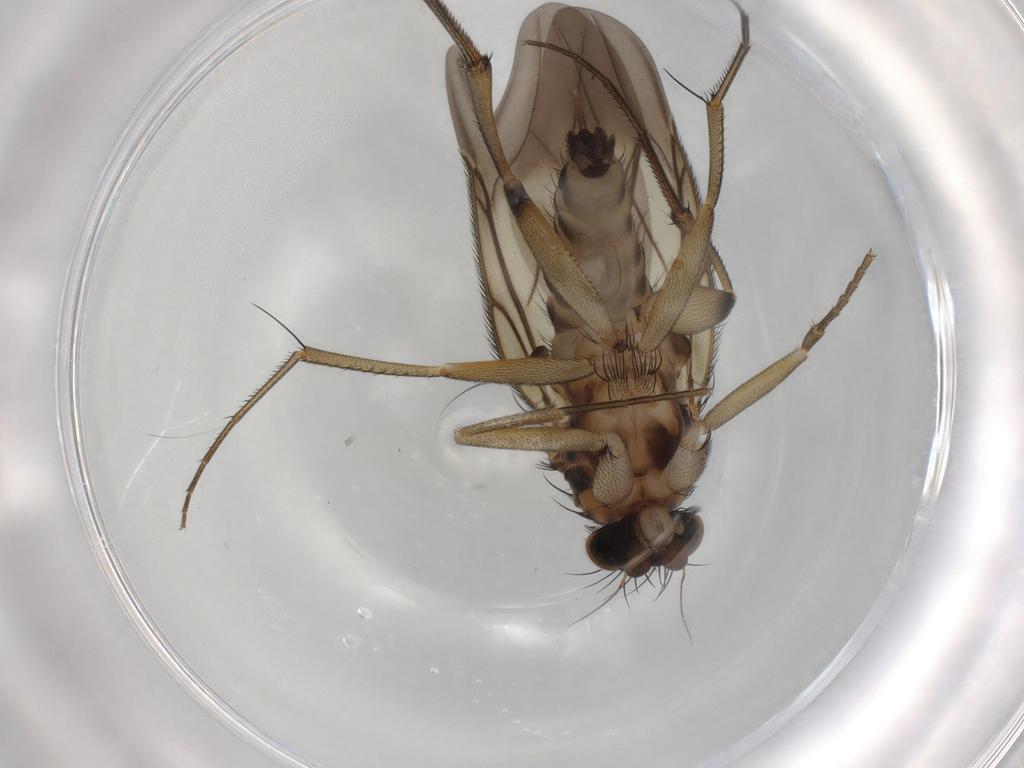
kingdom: Animalia
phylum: Arthropoda
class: Insecta
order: Diptera
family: Phoridae
